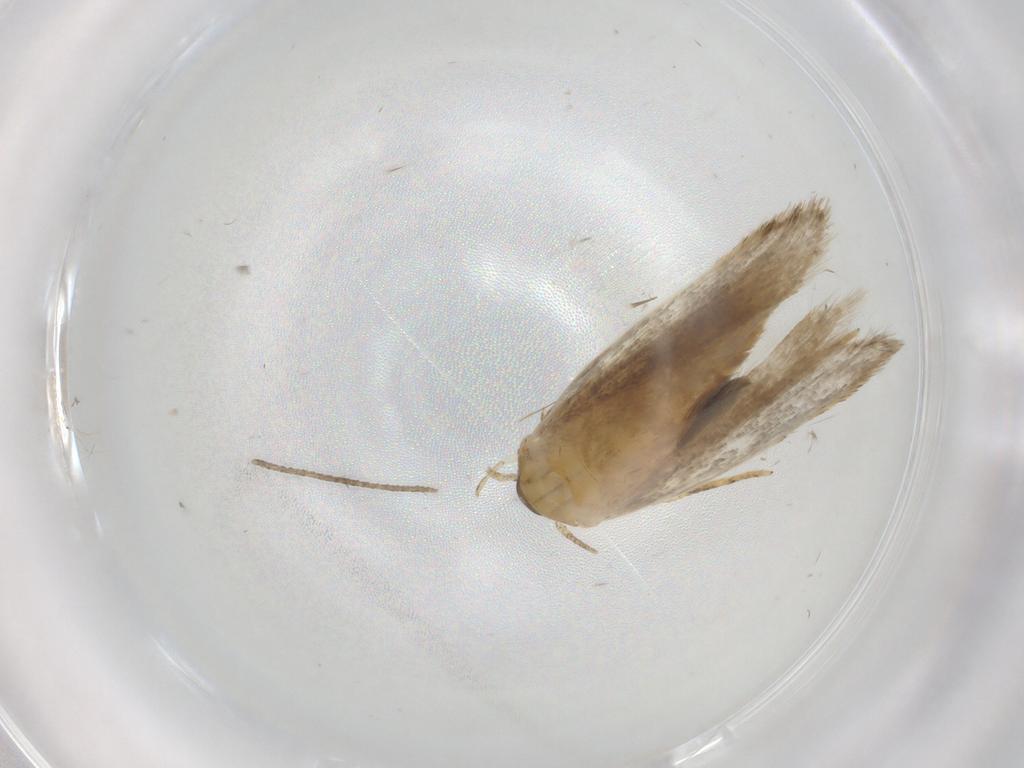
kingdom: Animalia
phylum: Arthropoda
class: Insecta
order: Lepidoptera
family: Autostichidae
